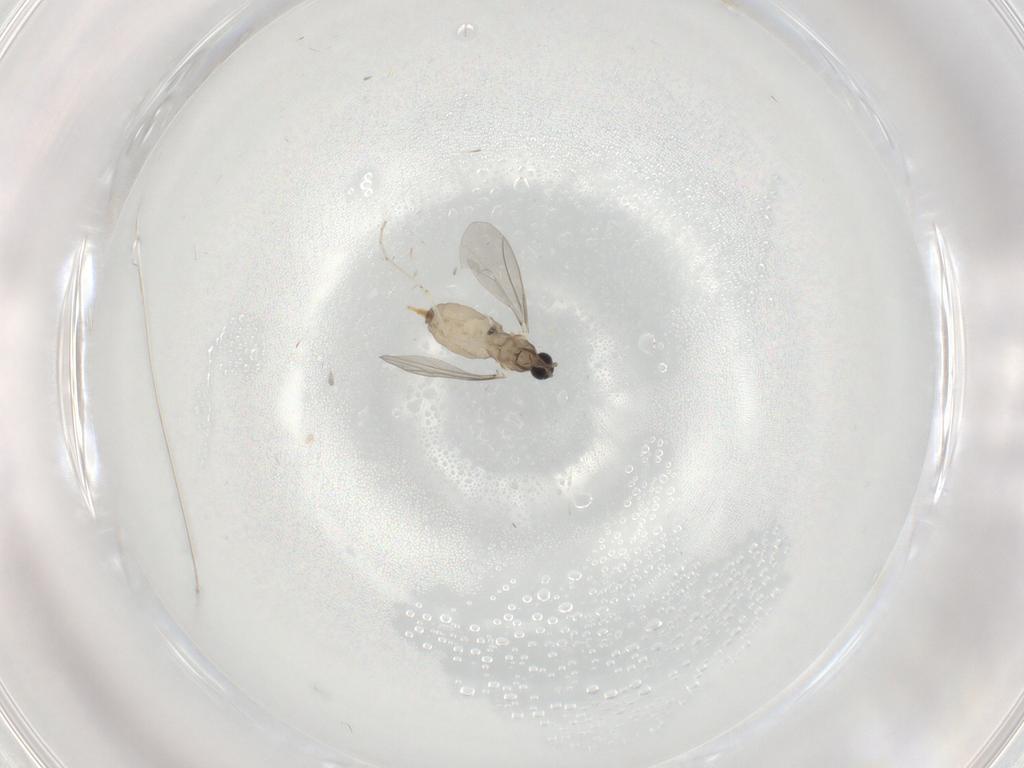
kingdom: Animalia
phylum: Arthropoda
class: Insecta
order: Diptera
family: Cecidomyiidae
